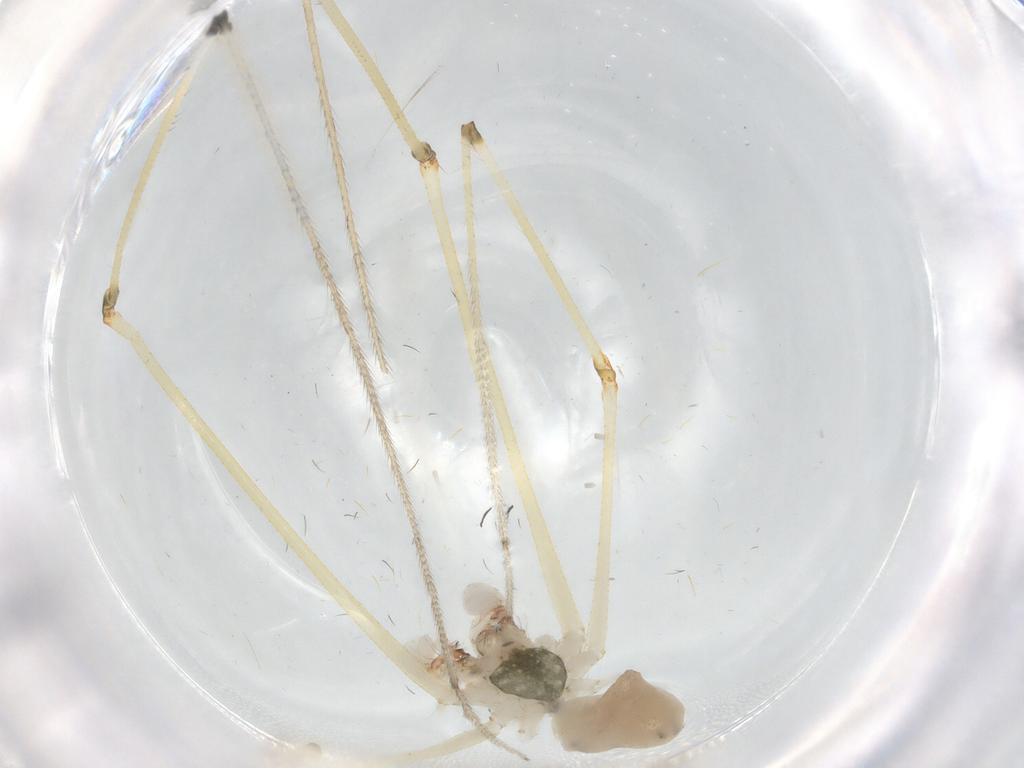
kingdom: Animalia
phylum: Arthropoda
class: Arachnida
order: Araneae
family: Pholcidae
